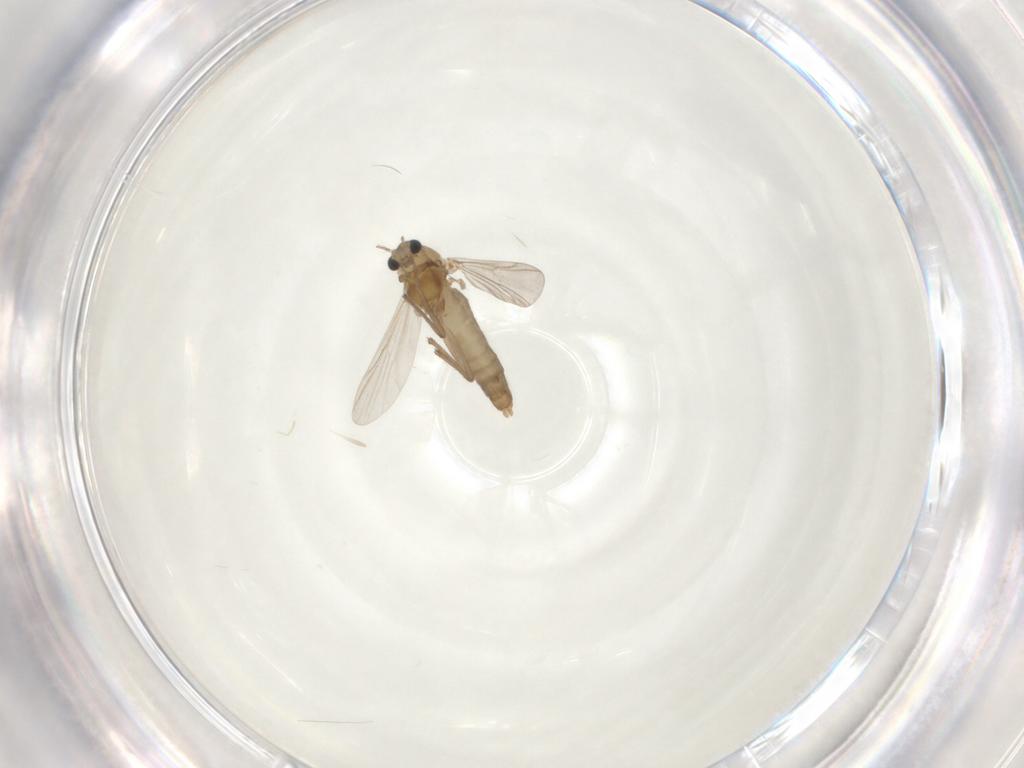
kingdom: Animalia
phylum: Arthropoda
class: Insecta
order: Diptera
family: Chironomidae
